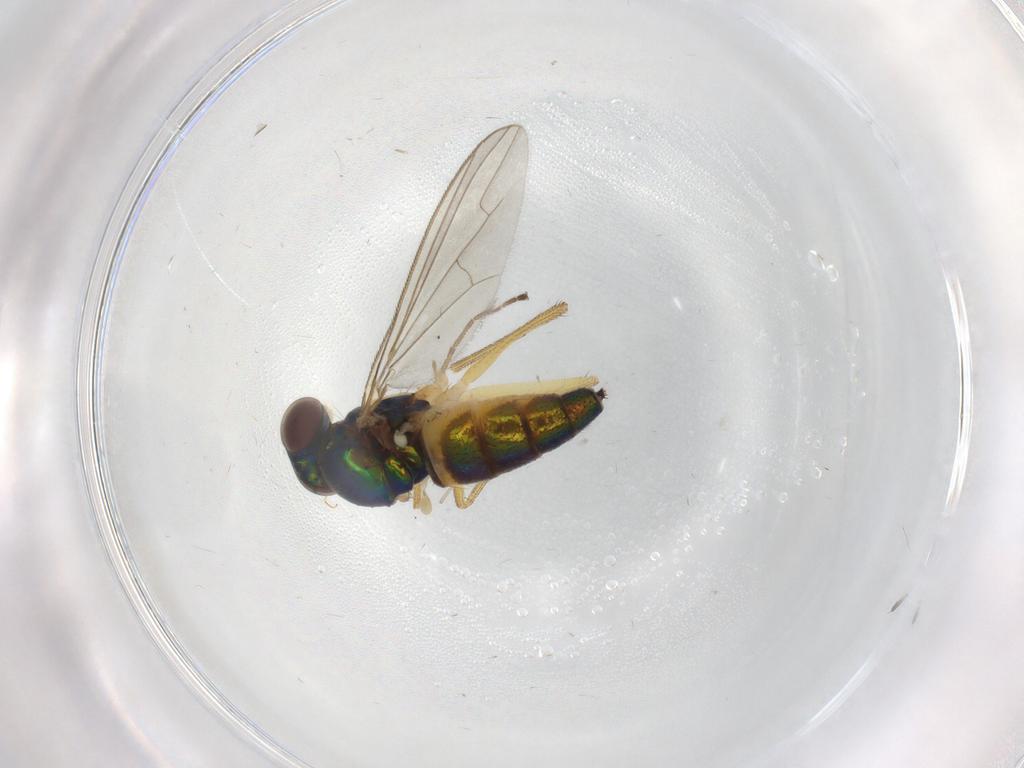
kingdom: Animalia
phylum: Arthropoda
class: Insecta
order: Diptera
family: Dolichopodidae
